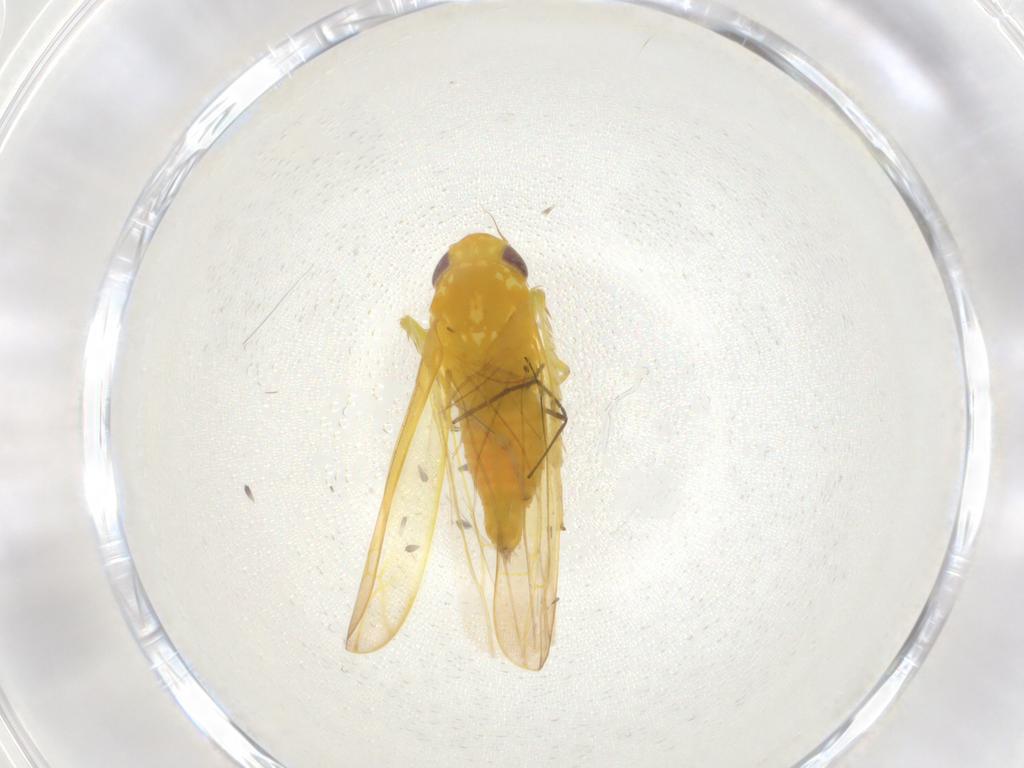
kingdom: Animalia
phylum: Arthropoda
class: Insecta
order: Hemiptera
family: Cicadellidae
